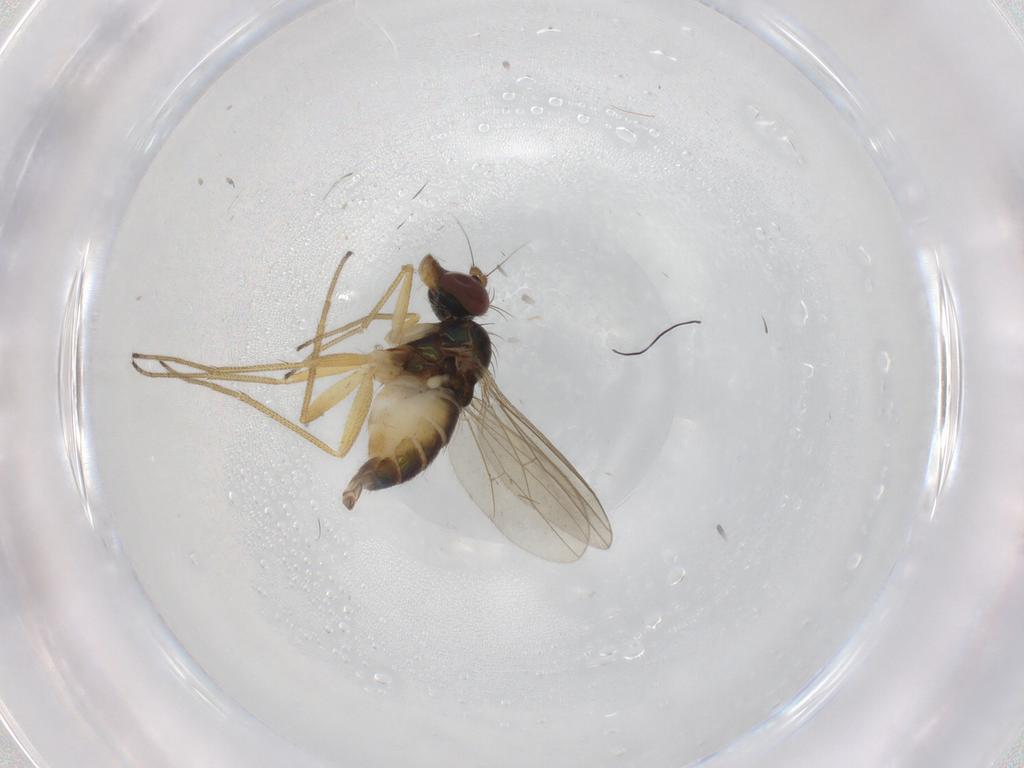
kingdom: Animalia
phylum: Arthropoda
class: Insecta
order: Diptera
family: Dolichopodidae
